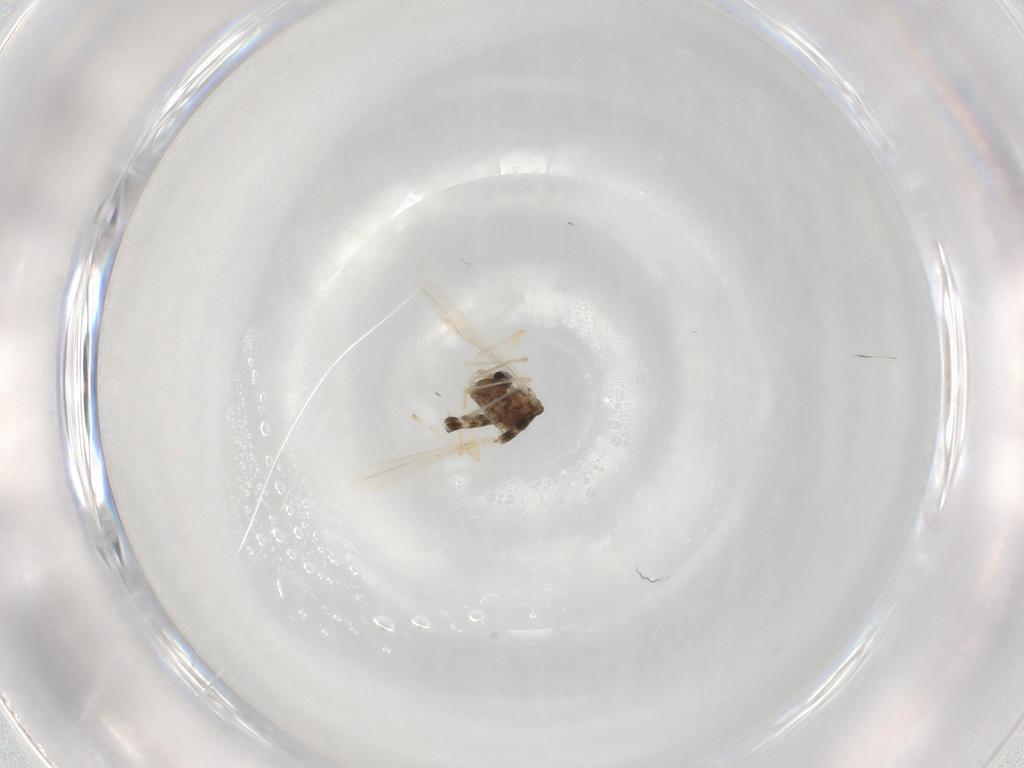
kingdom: Animalia
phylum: Arthropoda
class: Insecta
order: Diptera
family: Chironomidae
